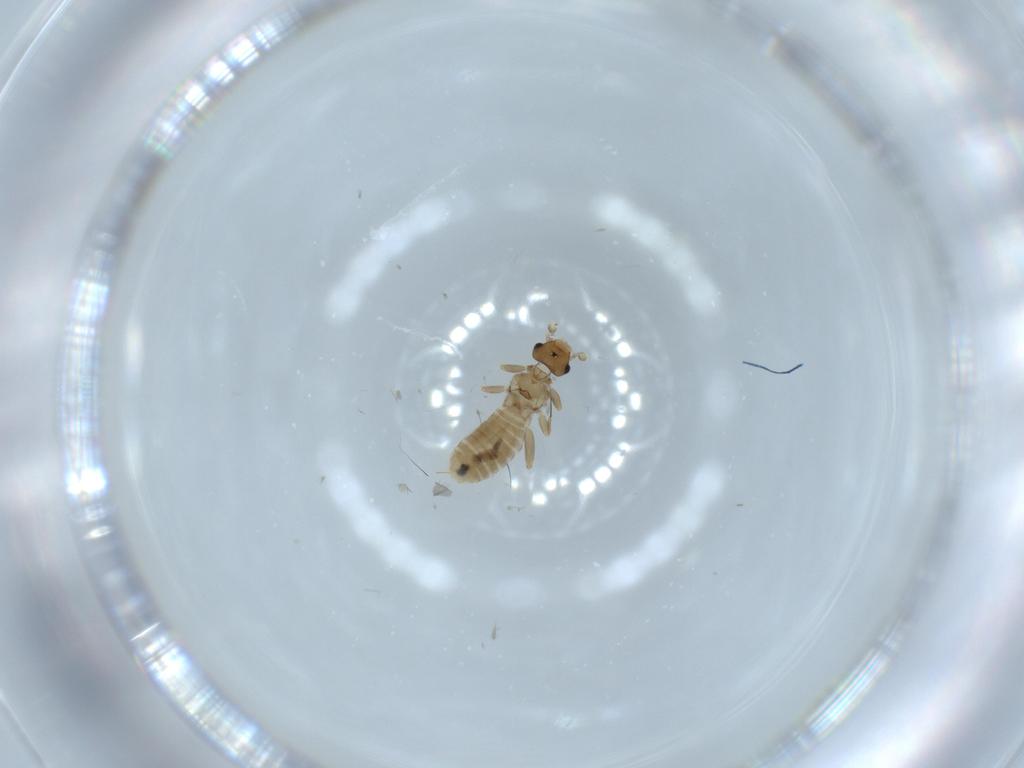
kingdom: Animalia
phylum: Arthropoda
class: Insecta
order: Psocodea
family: Liposcelididae
